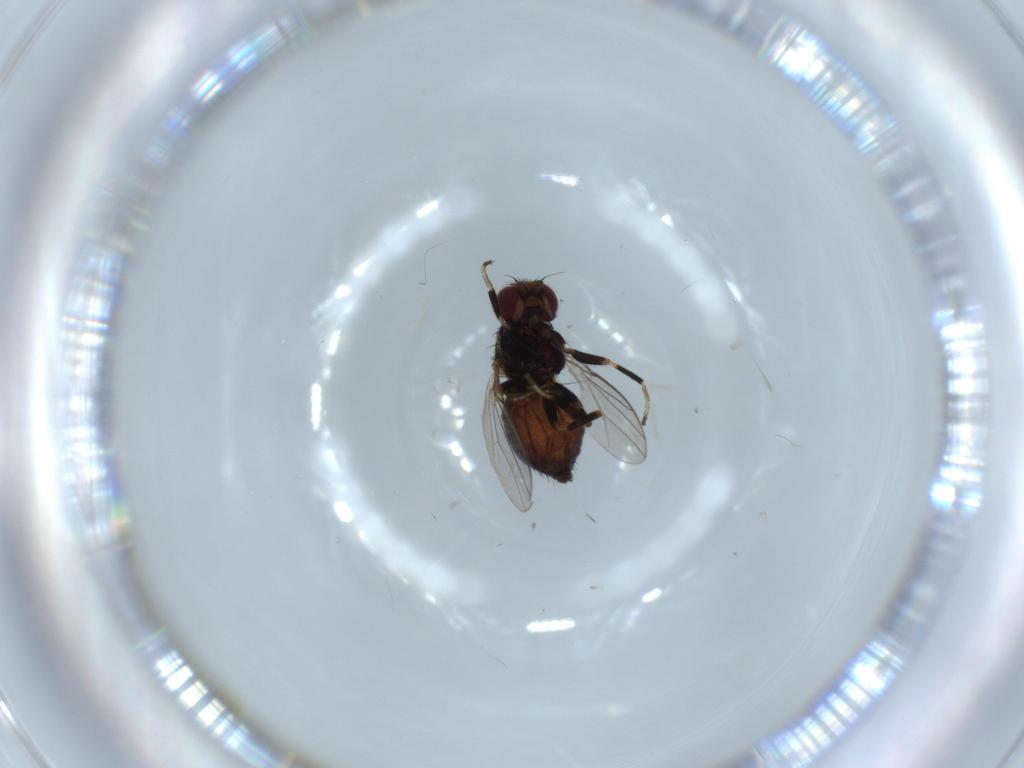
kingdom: Animalia
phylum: Arthropoda
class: Insecta
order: Diptera
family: Chloropidae
